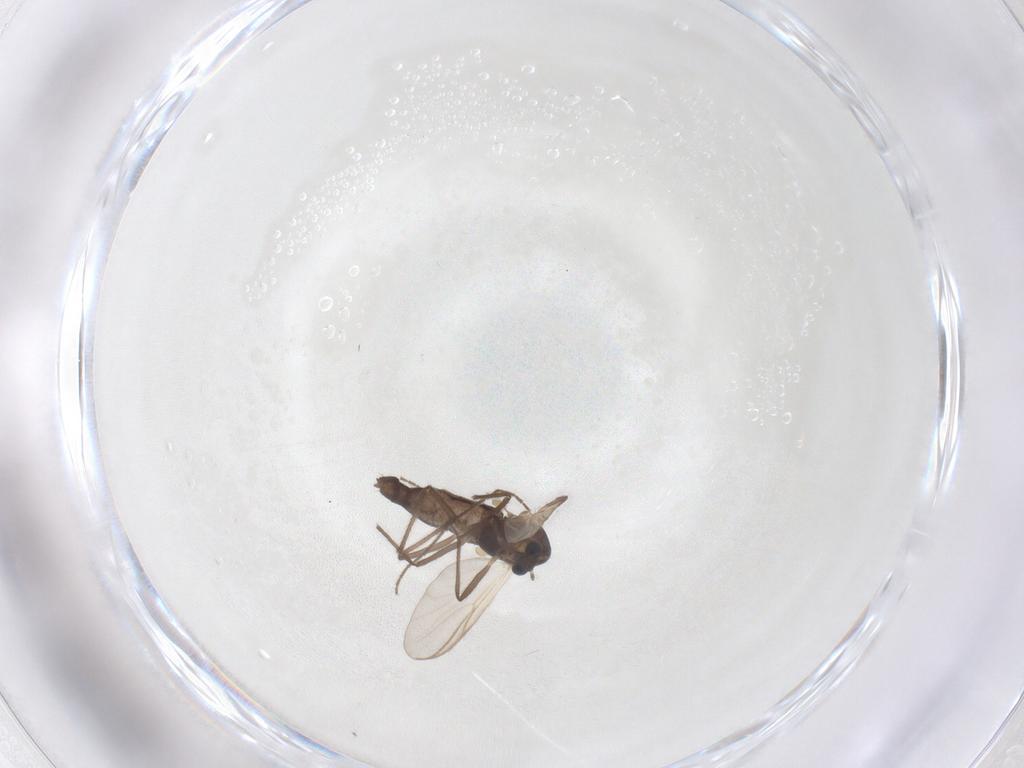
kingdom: Animalia
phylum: Arthropoda
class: Insecta
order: Diptera
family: Chironomidae
